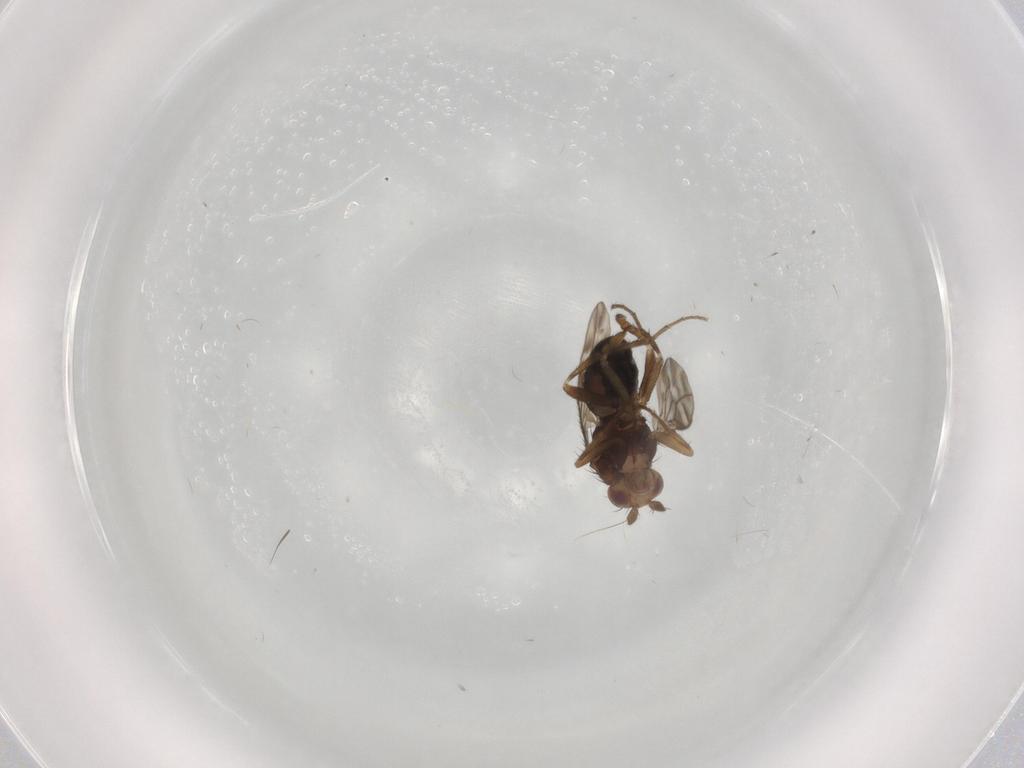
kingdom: Animalia
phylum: Arthropoda
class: Insecta
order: Diptera
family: Sphaeroceridae
